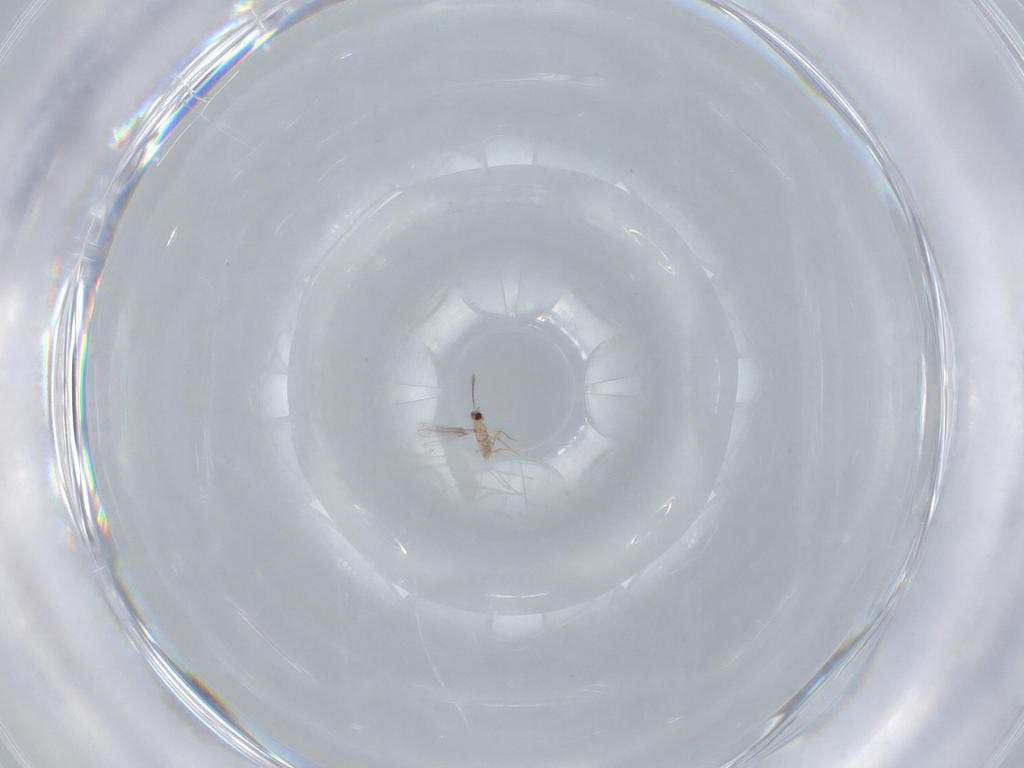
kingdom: Animalia
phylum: Arthropoda
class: Insecta
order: Hymenoptera
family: Mymaridae
